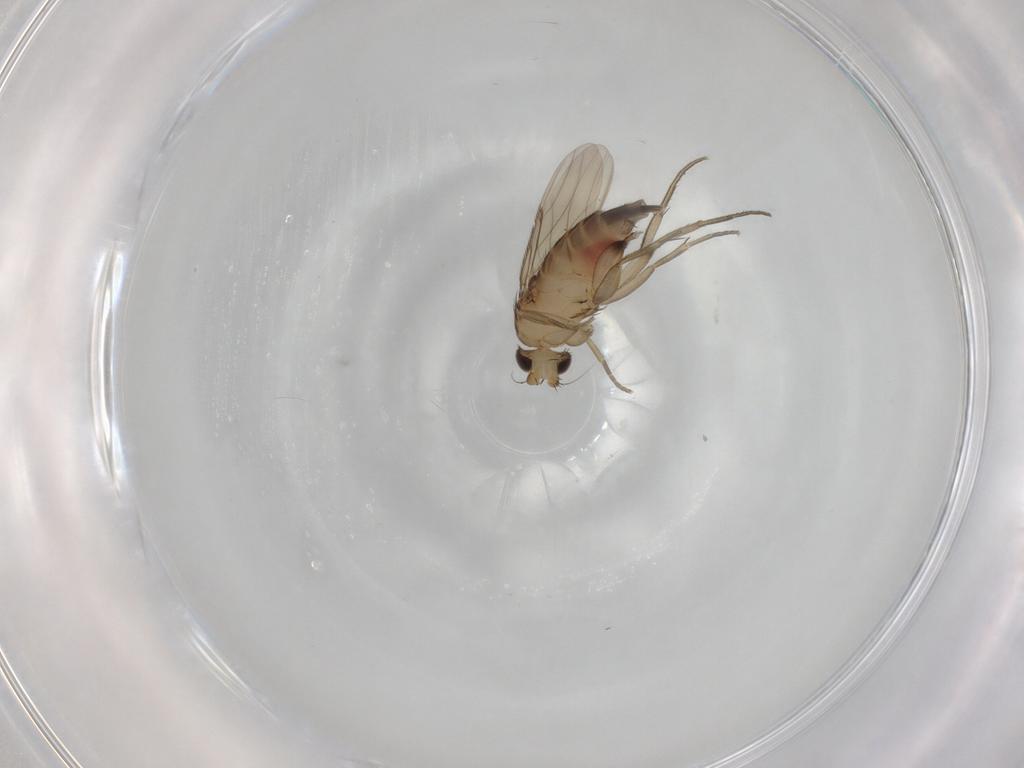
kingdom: Animalia
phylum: Arthropoda
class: Insecta
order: Diptera
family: Phoridae
